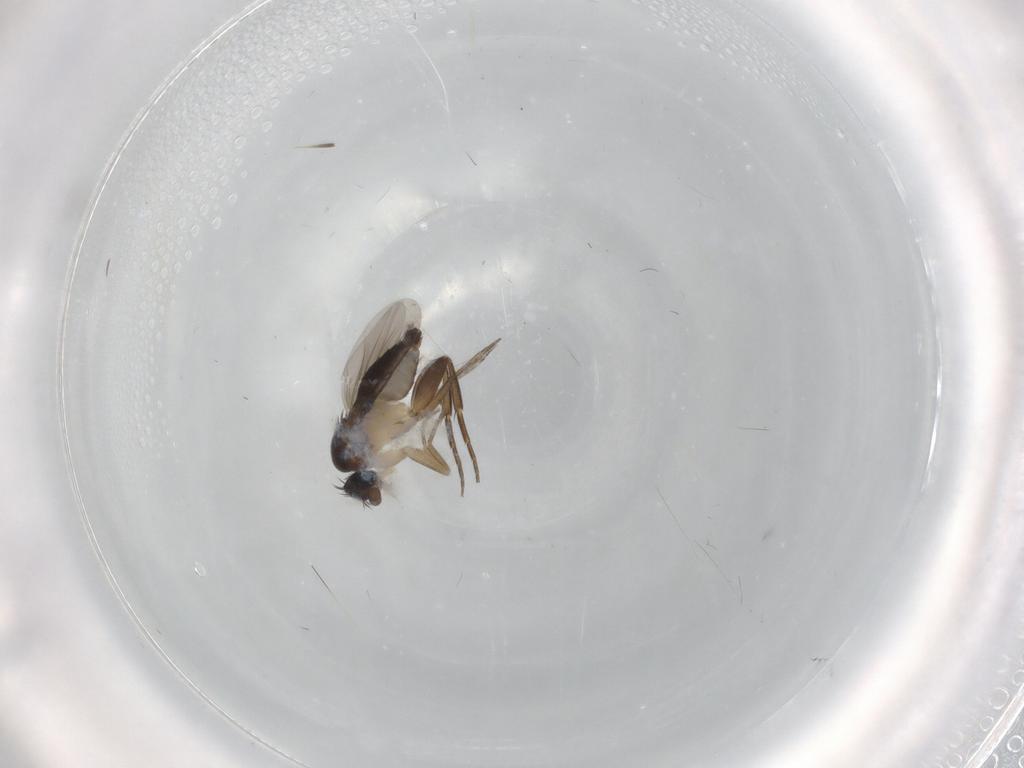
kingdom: Animalia
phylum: Arthropoda
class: Insecta
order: Diptera
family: Phoridae
